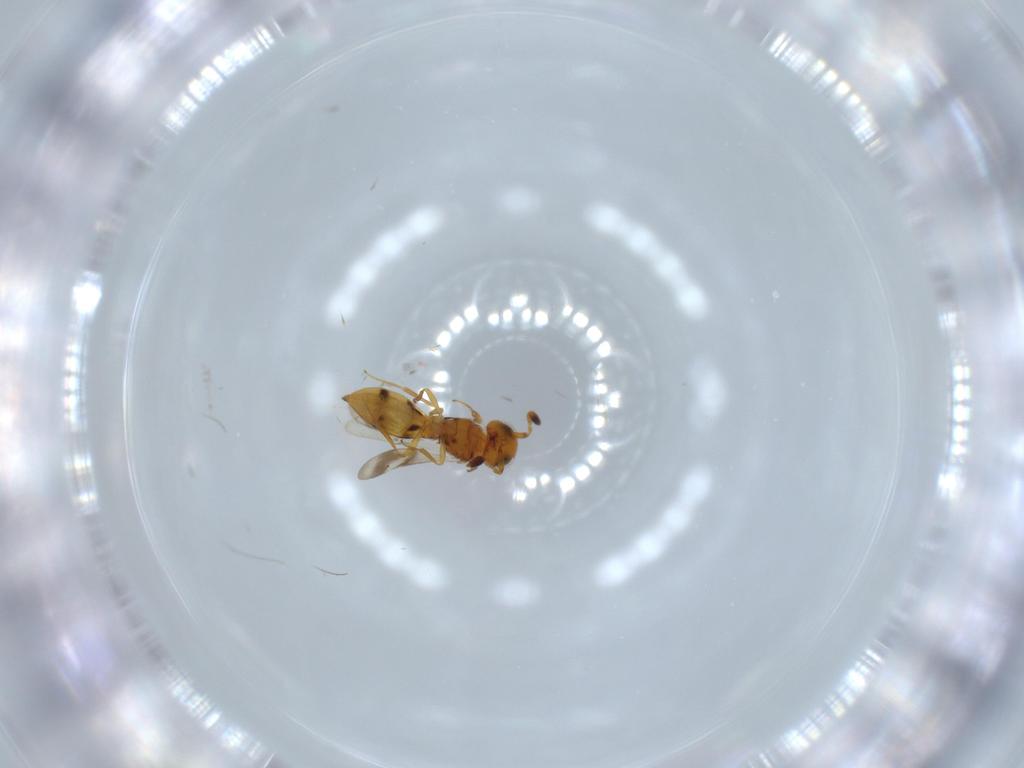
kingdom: Animalia
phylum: Arthropoda
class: Insecta
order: Hymenoptera
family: Scelionidae
